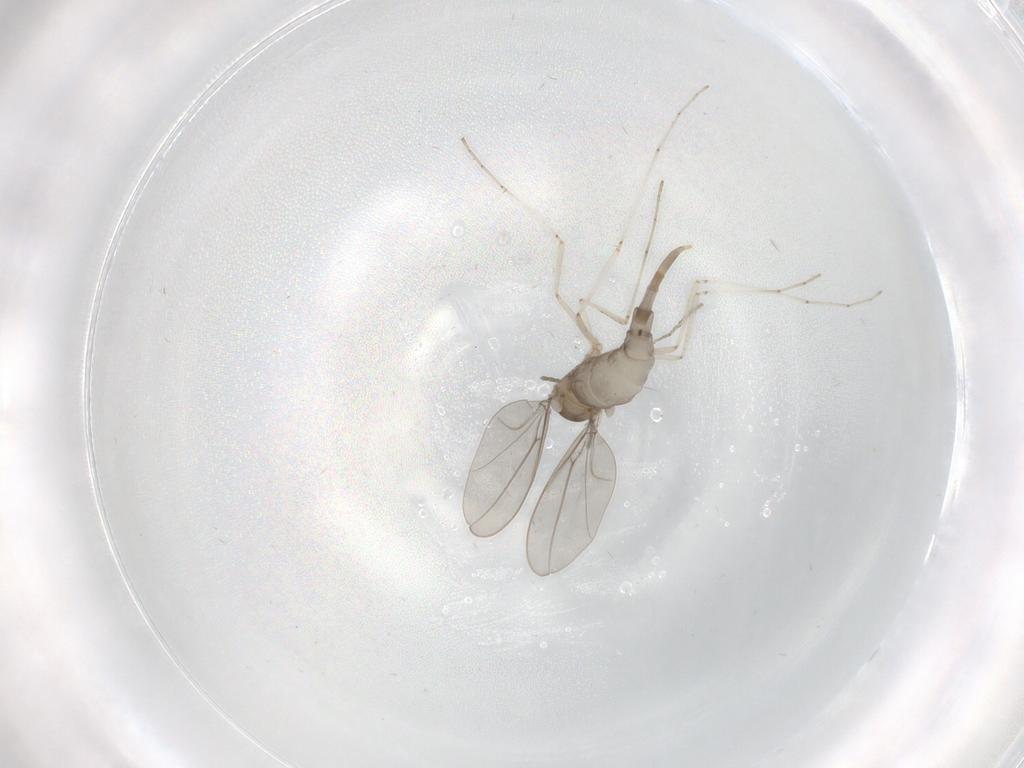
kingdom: Animalia
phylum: Arthropoda
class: Insecta
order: Diptera
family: Cecidomyiidae
